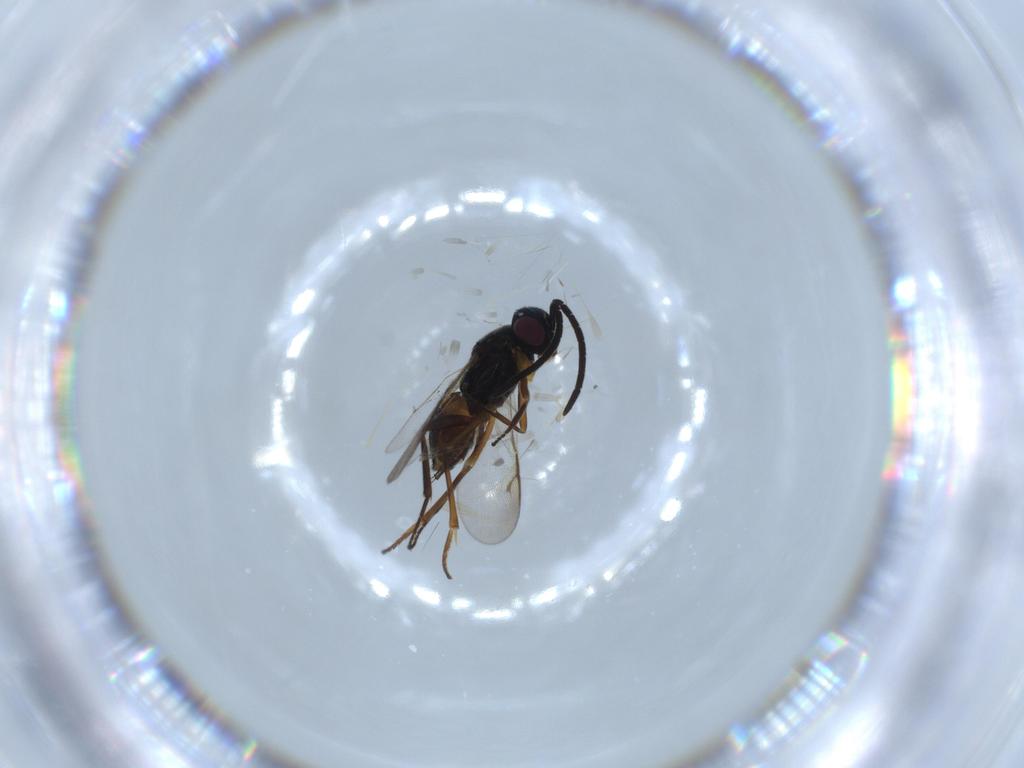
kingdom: Animalia
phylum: Arthropoda
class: Insecta
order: Hymenoptera
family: Encyrtidae
